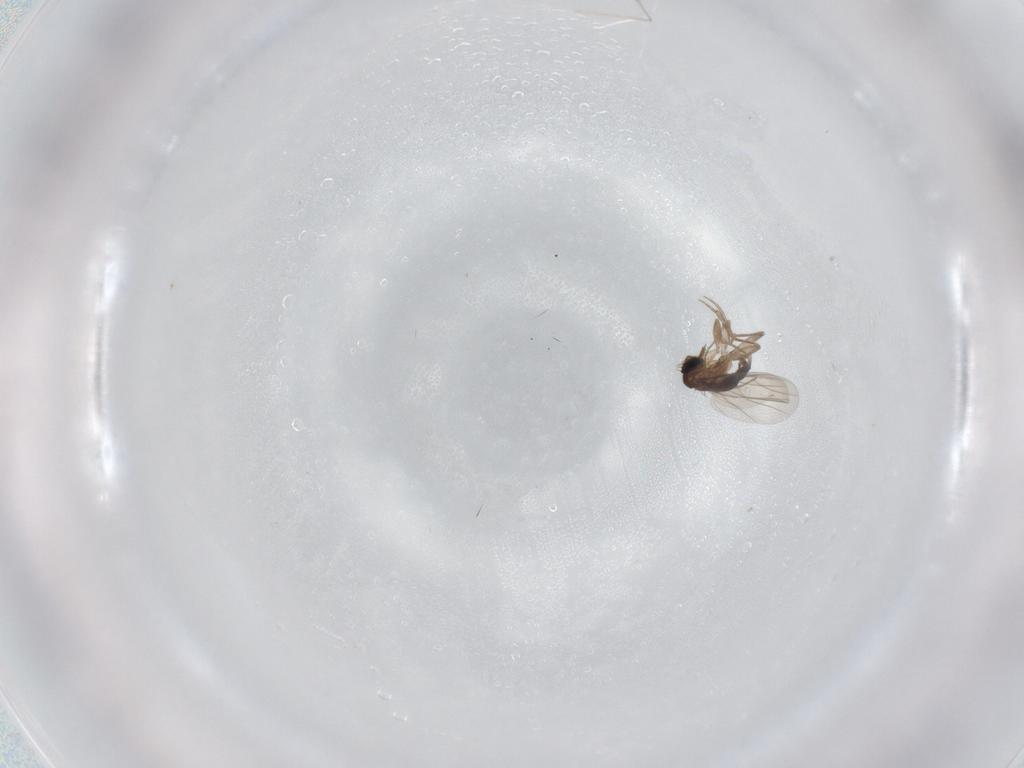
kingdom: Animalia
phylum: Arthropoda
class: Insecta
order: Diptera
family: Phoridae
